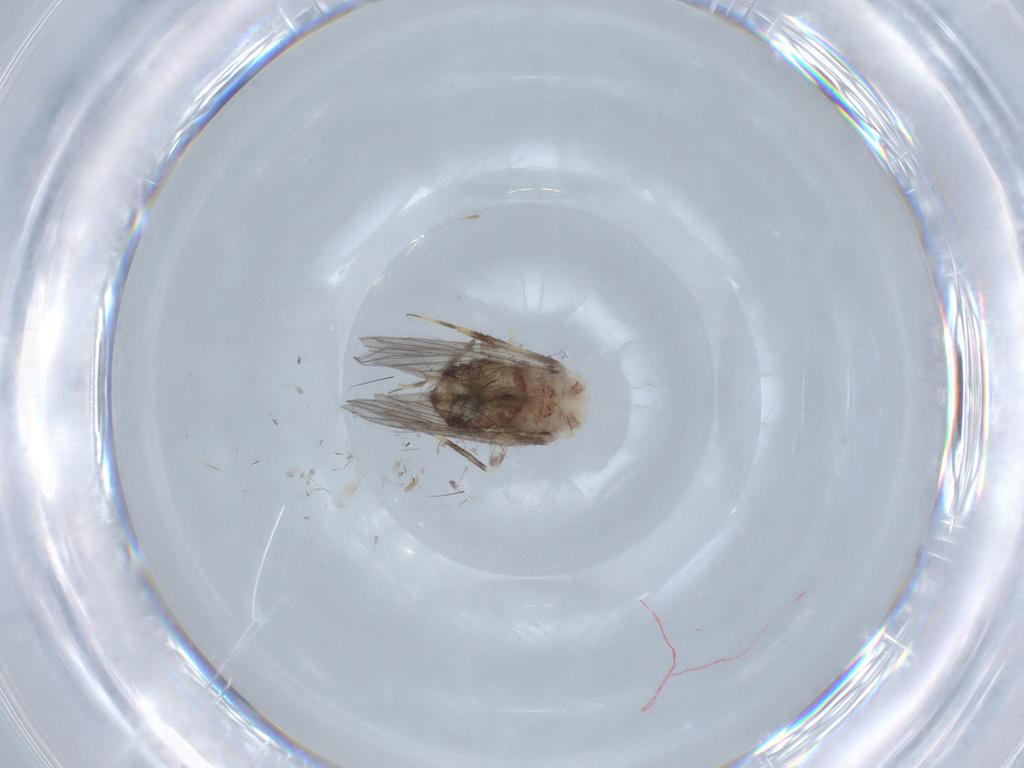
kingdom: Animalia
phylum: Arthropoda
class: Insecta
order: Psocodea
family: Lepidopsocidae
